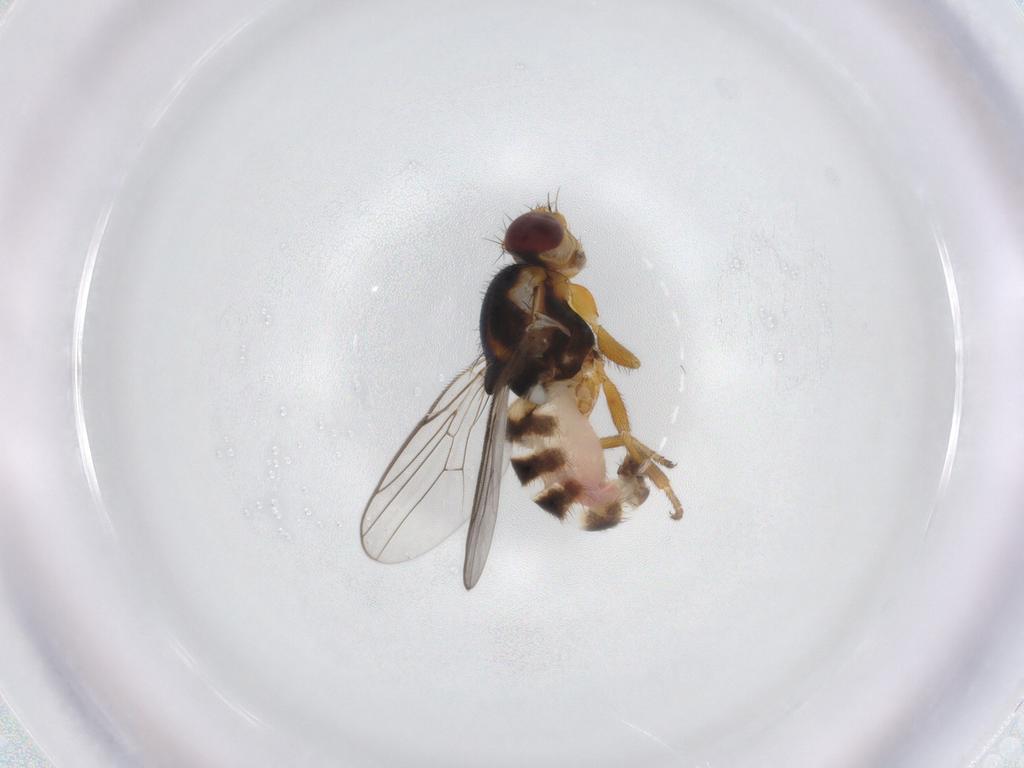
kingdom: Animalia
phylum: Arthropoda
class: Insecta
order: Diptera
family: Chloropidae
